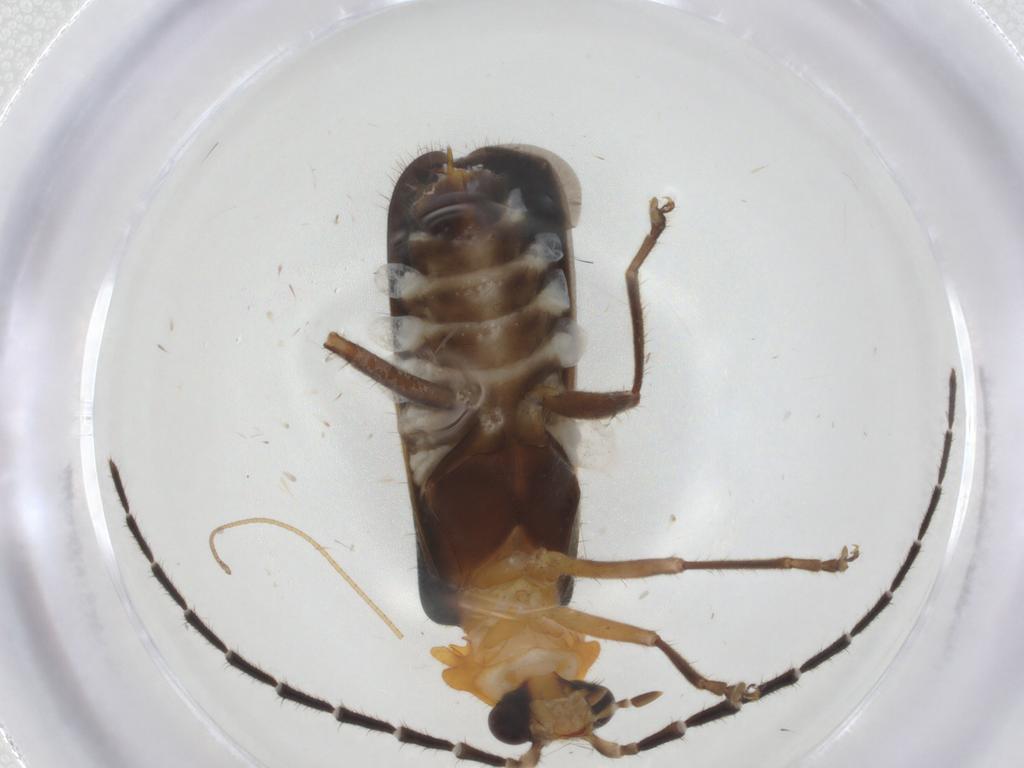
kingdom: Animalia
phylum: Arthropoda
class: Insecta
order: Coleoptera
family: Cantharidae
